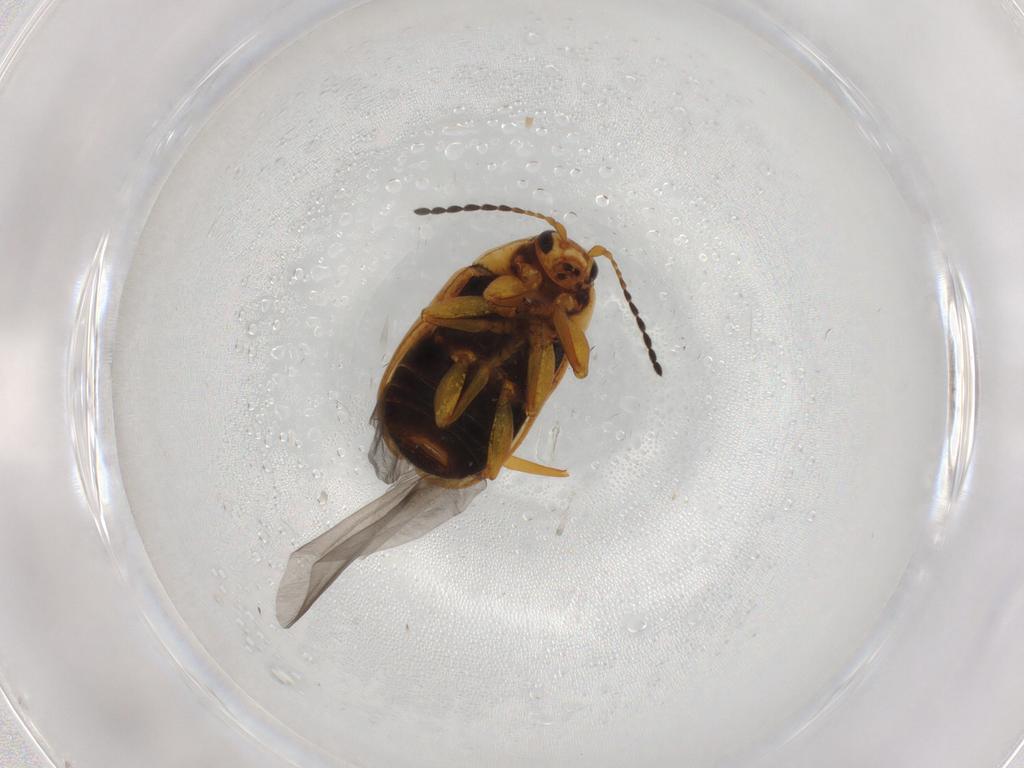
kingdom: Animalia
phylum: Arthropoda
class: Insecta
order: Coleoptera
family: Chrysomelidae
